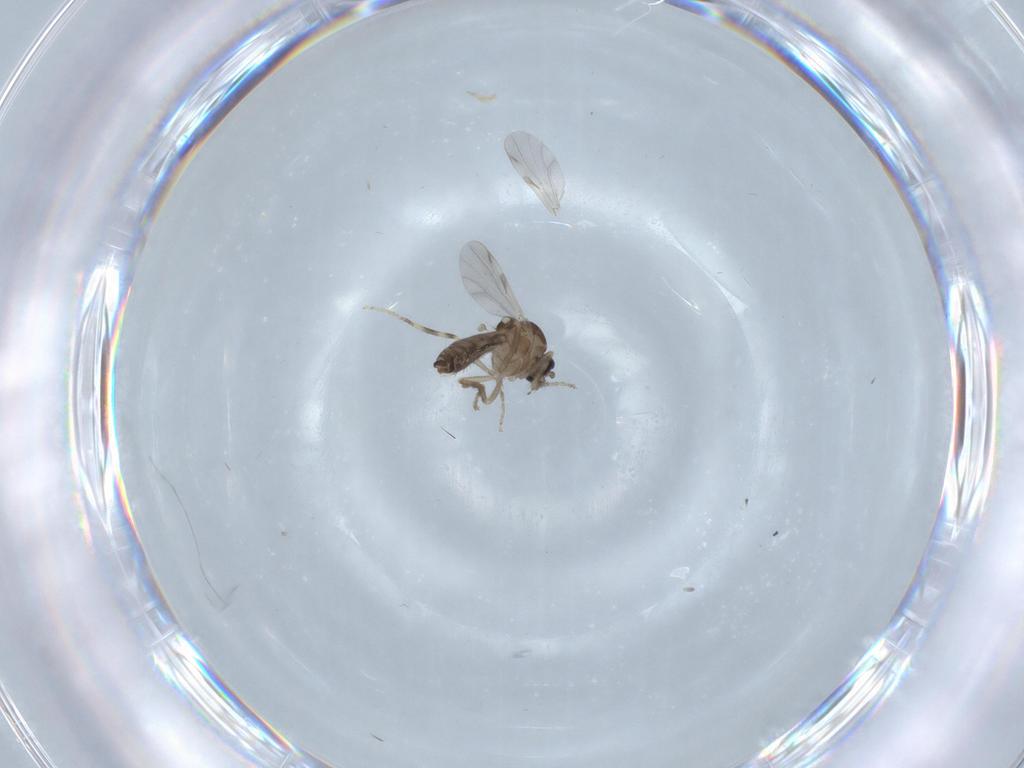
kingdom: Animalia
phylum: Arthropoda
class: Insecta
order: Diptera
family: Ceratopogonidae
